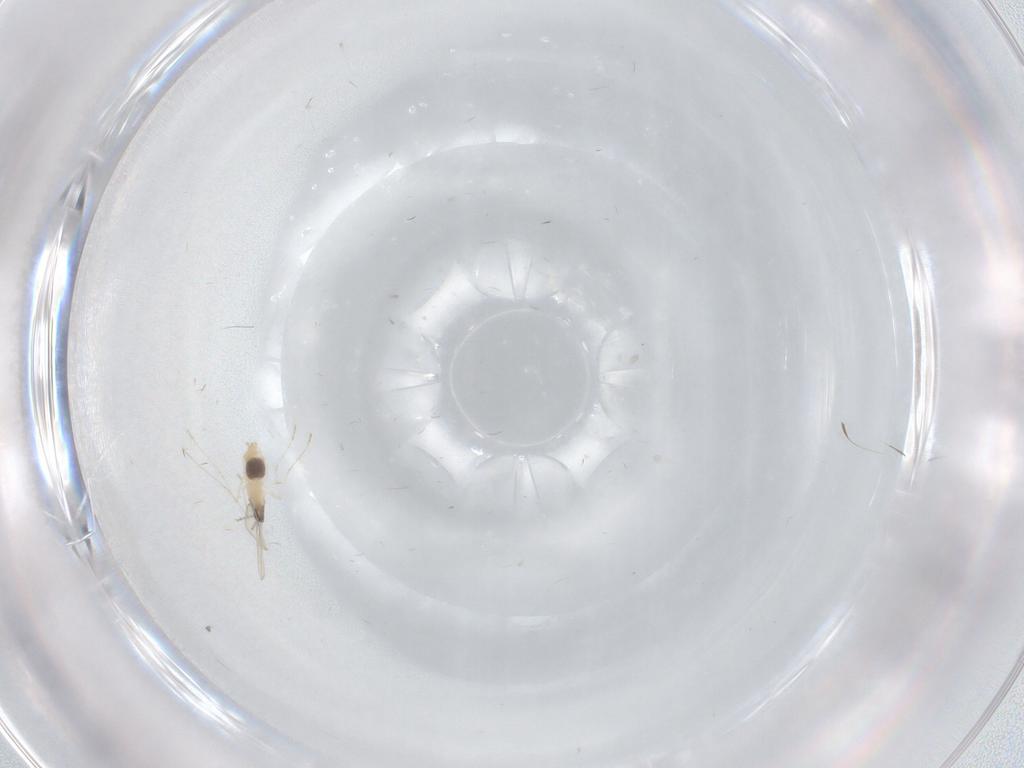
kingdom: Animalia
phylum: Arthropoda
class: Insecta
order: Diptera
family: Cecidomyiidae
